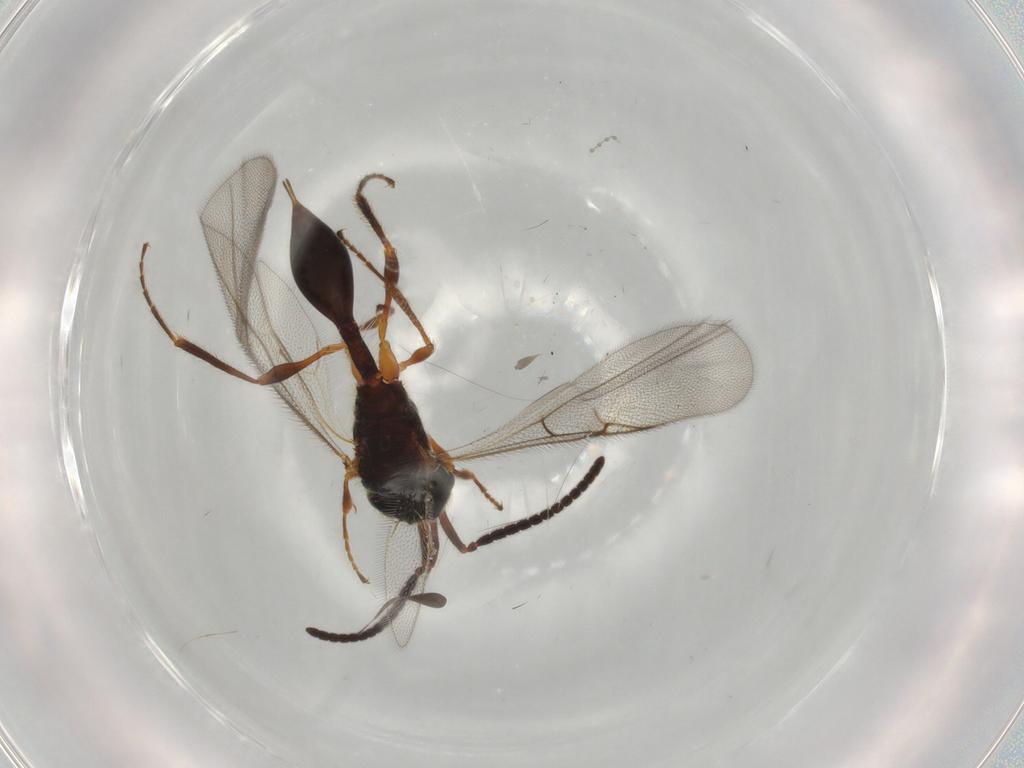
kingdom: Animalia
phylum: Arthropoda
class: Insecta
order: Hymenoptera
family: Diapriidae
